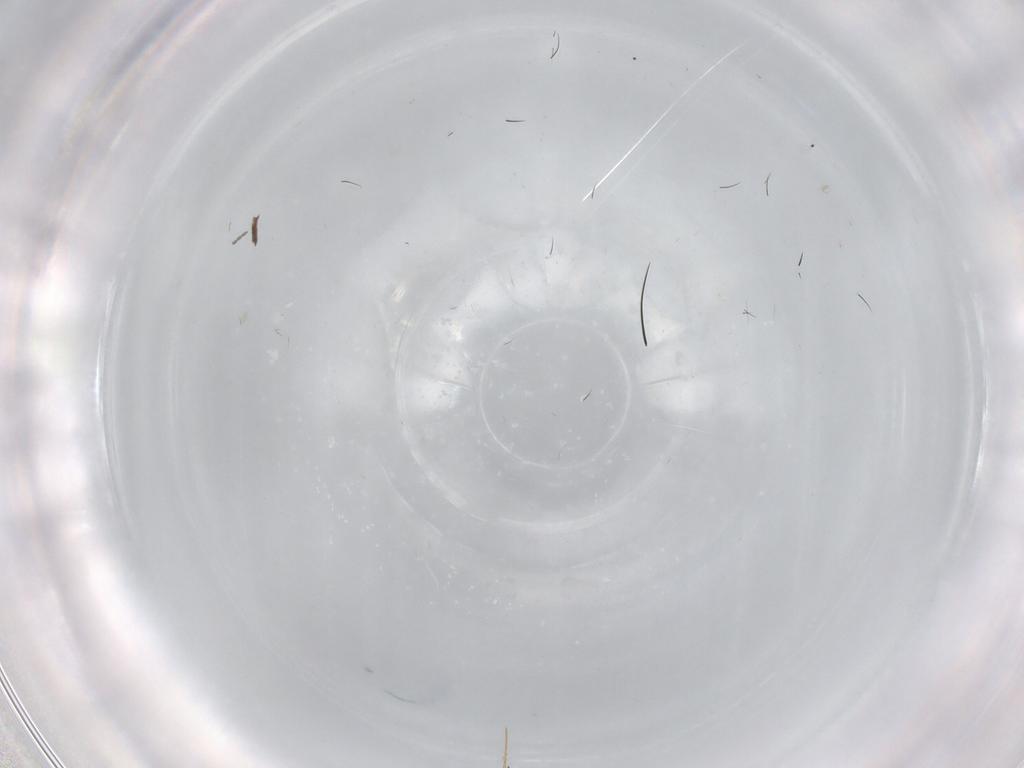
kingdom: Animalia
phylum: Arthropoda
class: Insecta
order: Diptera
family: Phoridae
